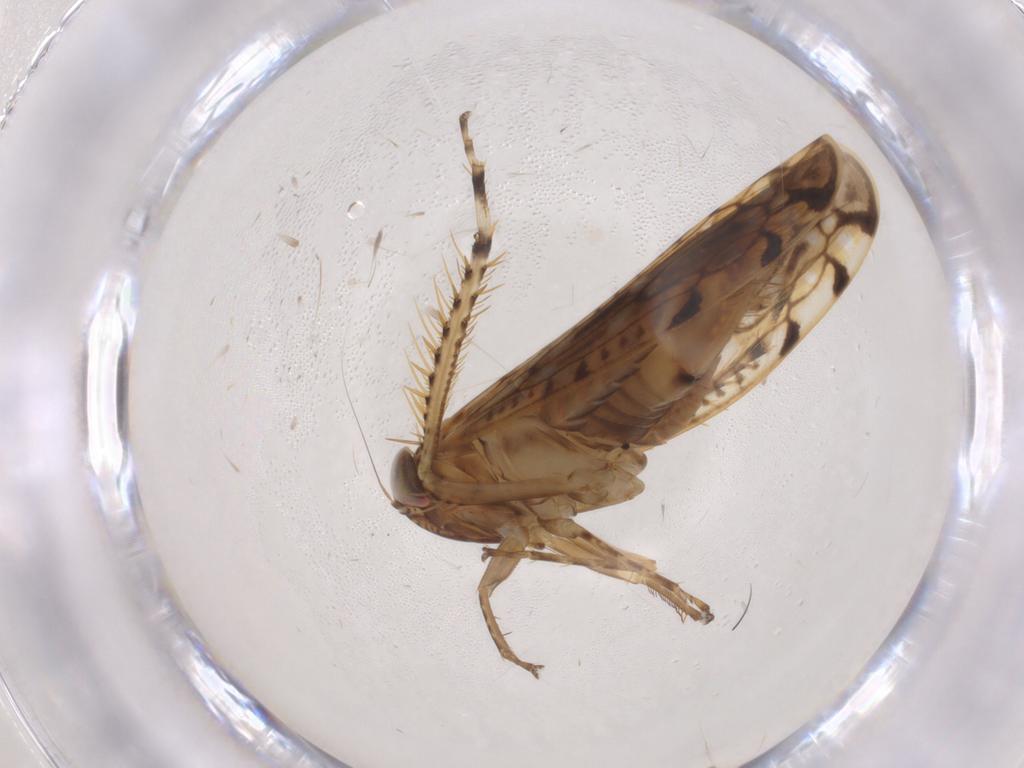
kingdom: Animalia
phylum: Arthropoda
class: Insecta
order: Hemiptera
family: Cicadellidae
